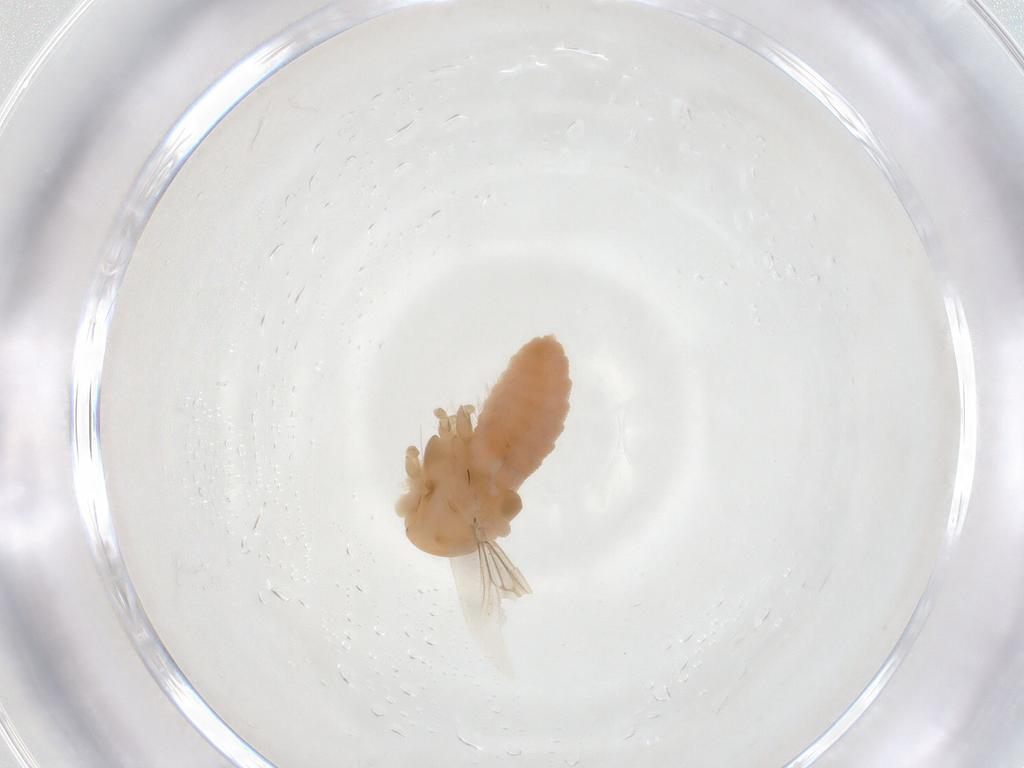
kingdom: Animalia
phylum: Arthropoda
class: Insecta
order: Diptera
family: Chironomidae
